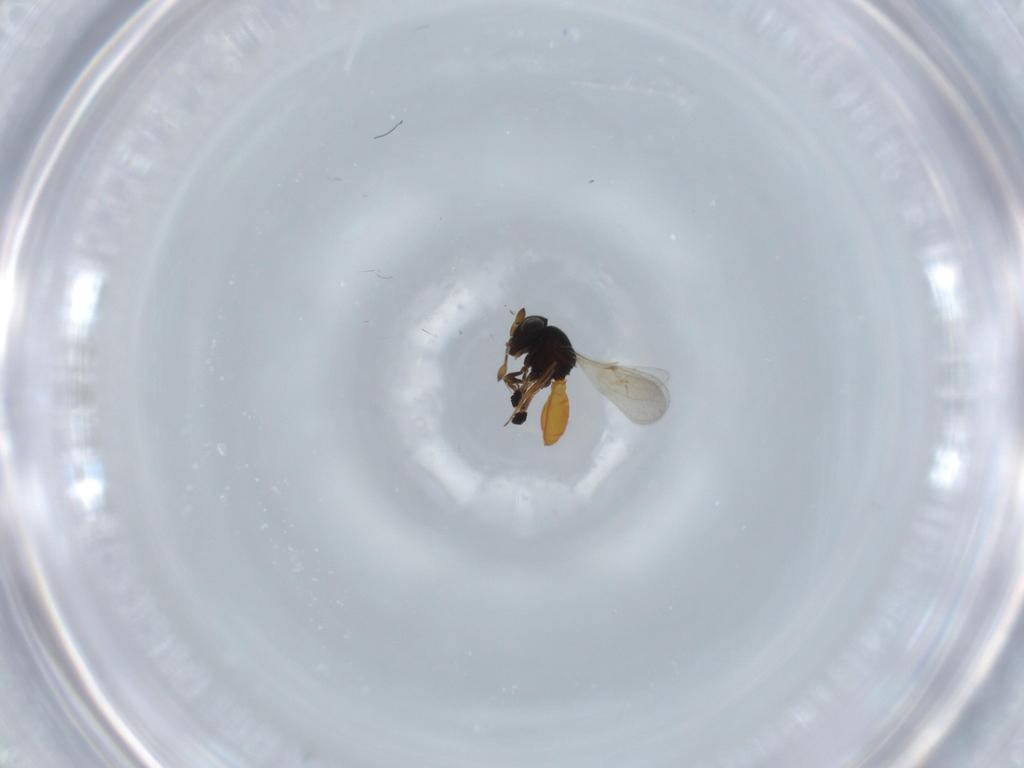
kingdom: Animalia
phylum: Arthropoda
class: Insecta
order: Hymenoptera
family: Scelionidae
